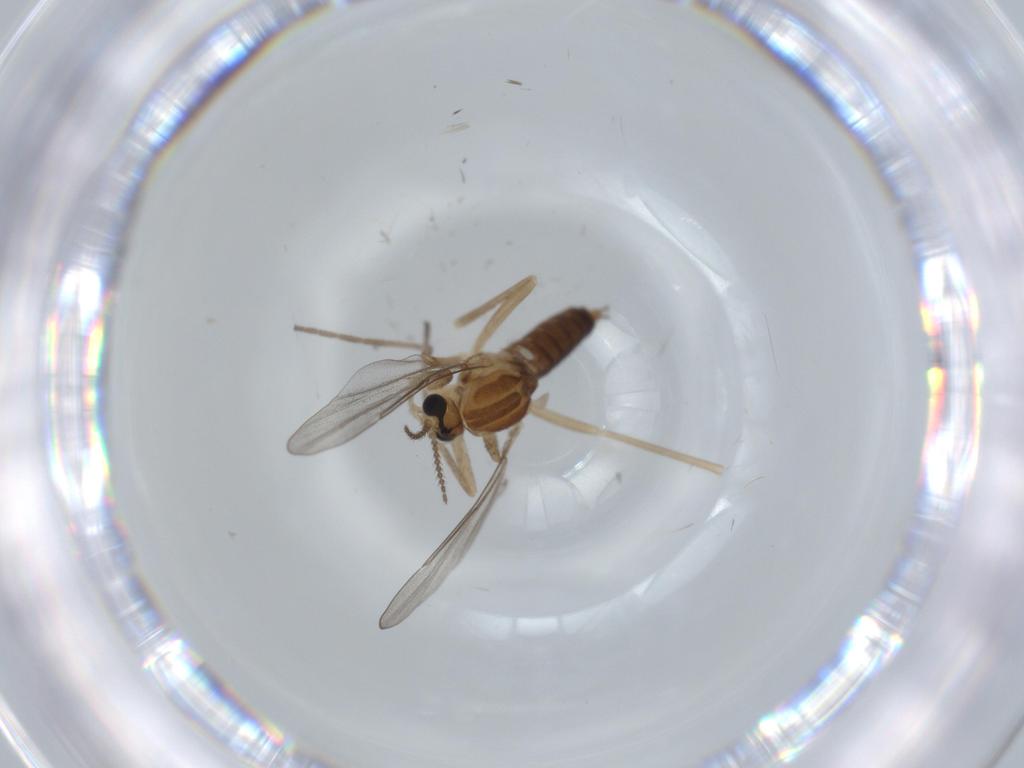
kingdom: Animalia
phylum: Arthropoda
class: Insecta
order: Diptera
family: Cecidomyiidae
